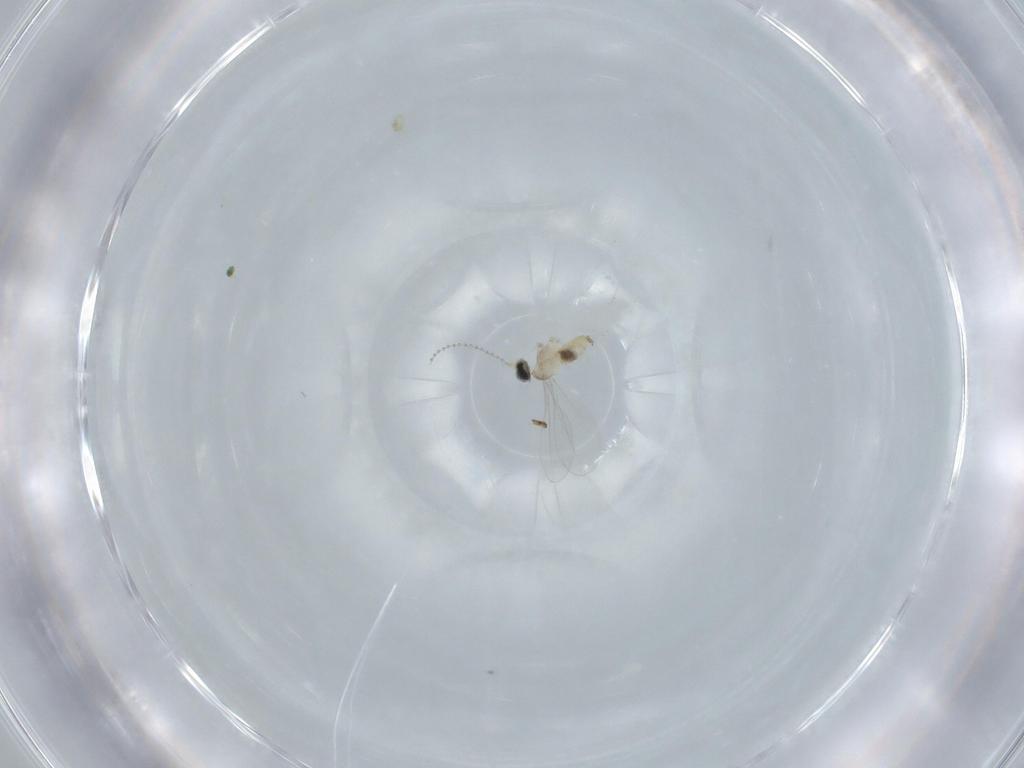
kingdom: Animalia
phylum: Arthropoda
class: Insecta
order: Diptera
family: Cecidomyiidae
